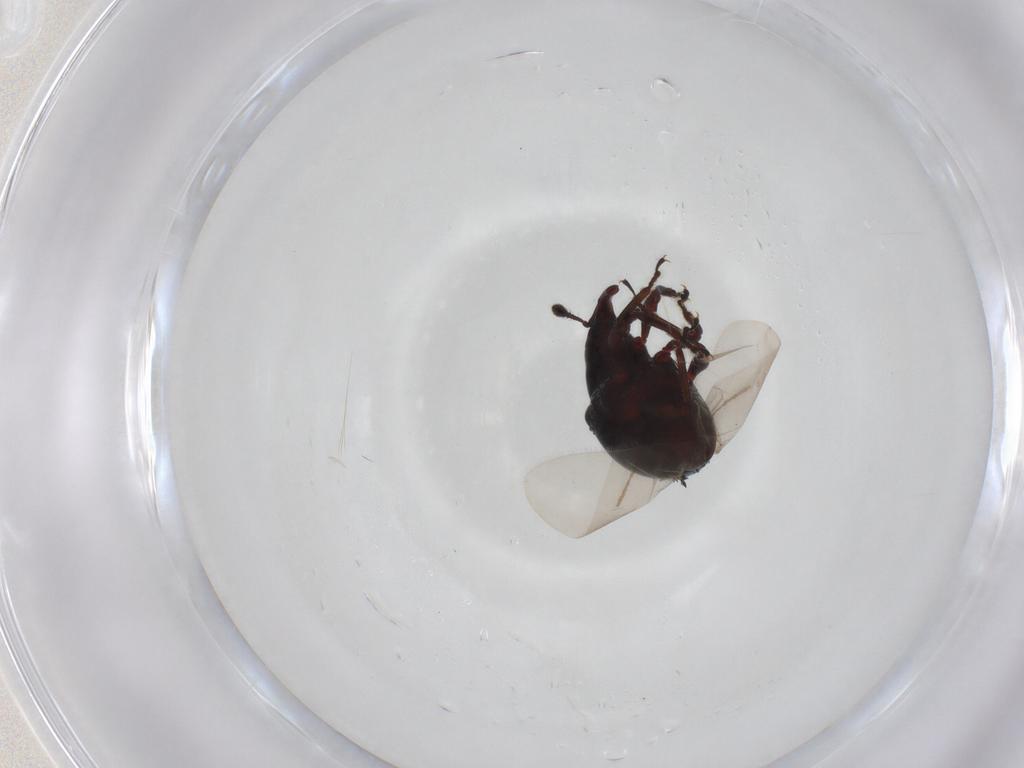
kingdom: Animalia
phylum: Arthropoda
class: Insecta
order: Coleoptera
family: Curculionidae
